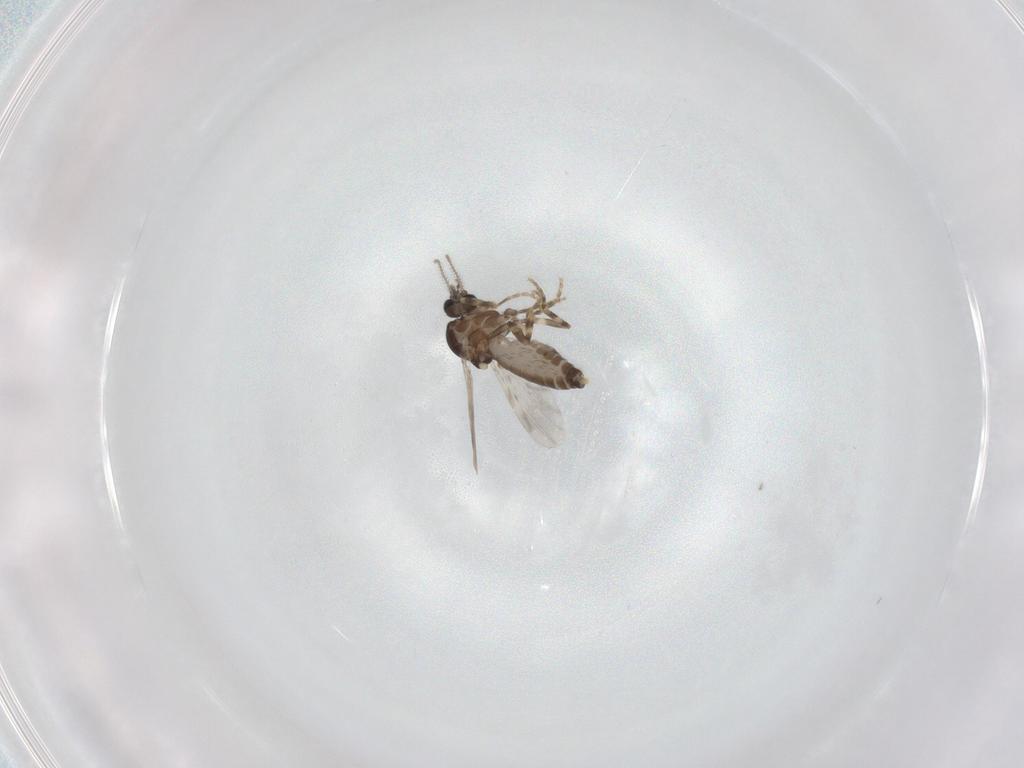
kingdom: Animalia
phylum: Arthropoda
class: Insecta
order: Diptera
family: Ceratopogonidae
